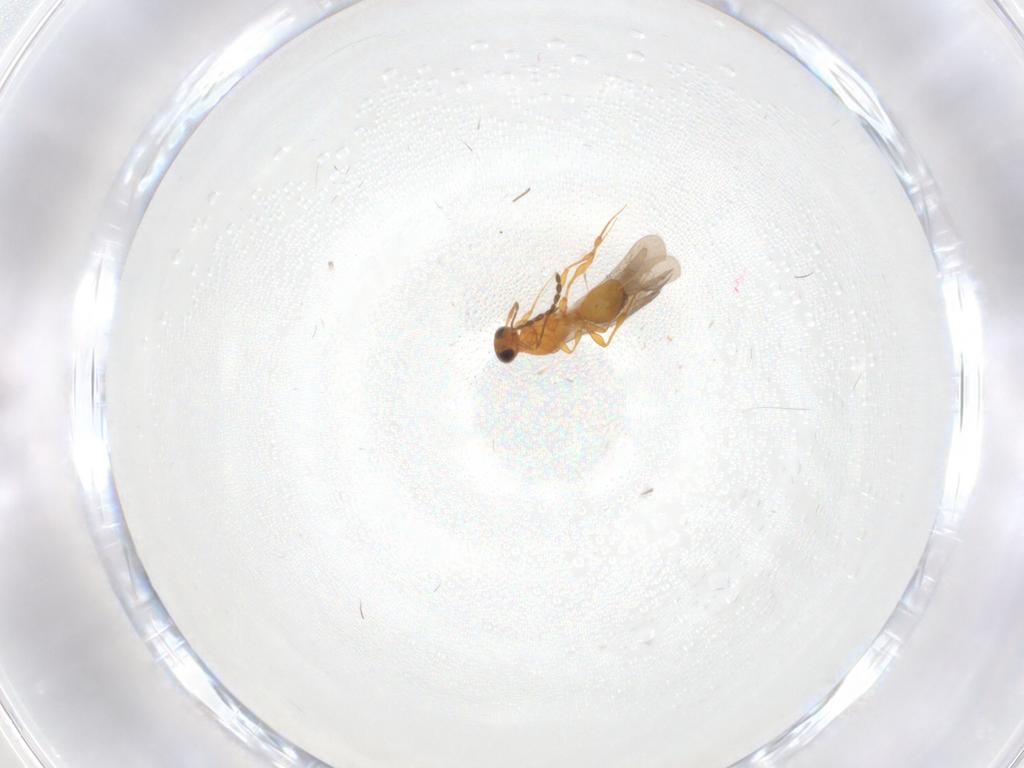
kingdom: Animalia
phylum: Arthropoda
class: Insecta
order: Hymenoptera
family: Platygastridae
